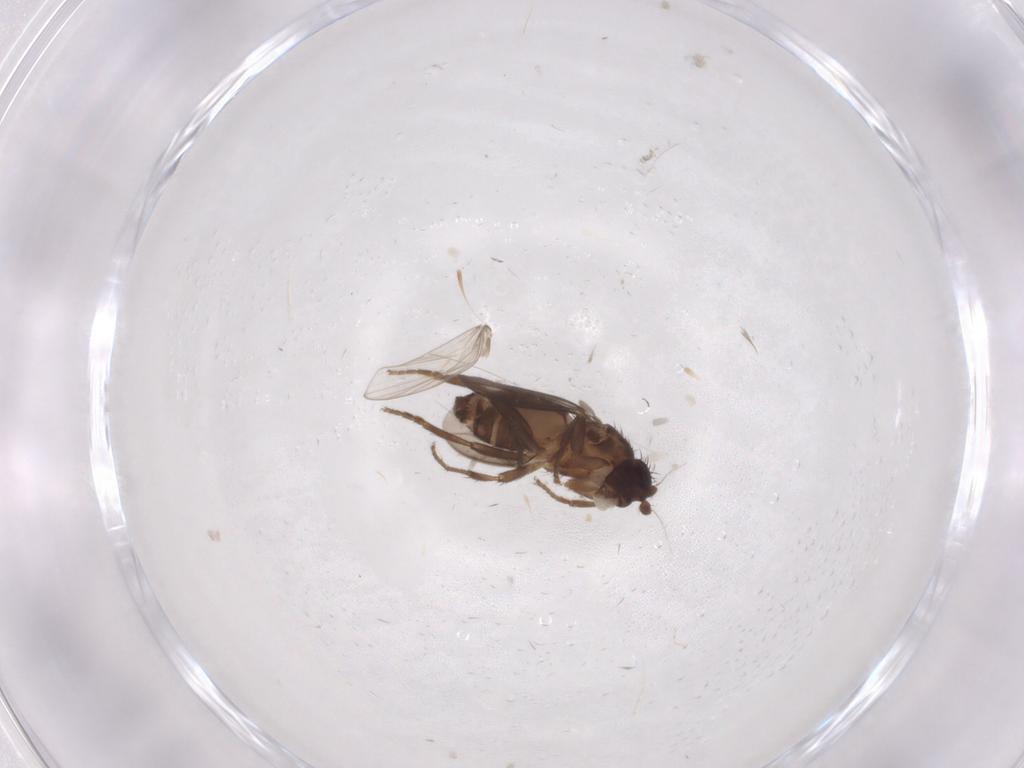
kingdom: Animalia
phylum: Arthropoda
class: Insecta
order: Diptera
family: Sphaeroceridae
